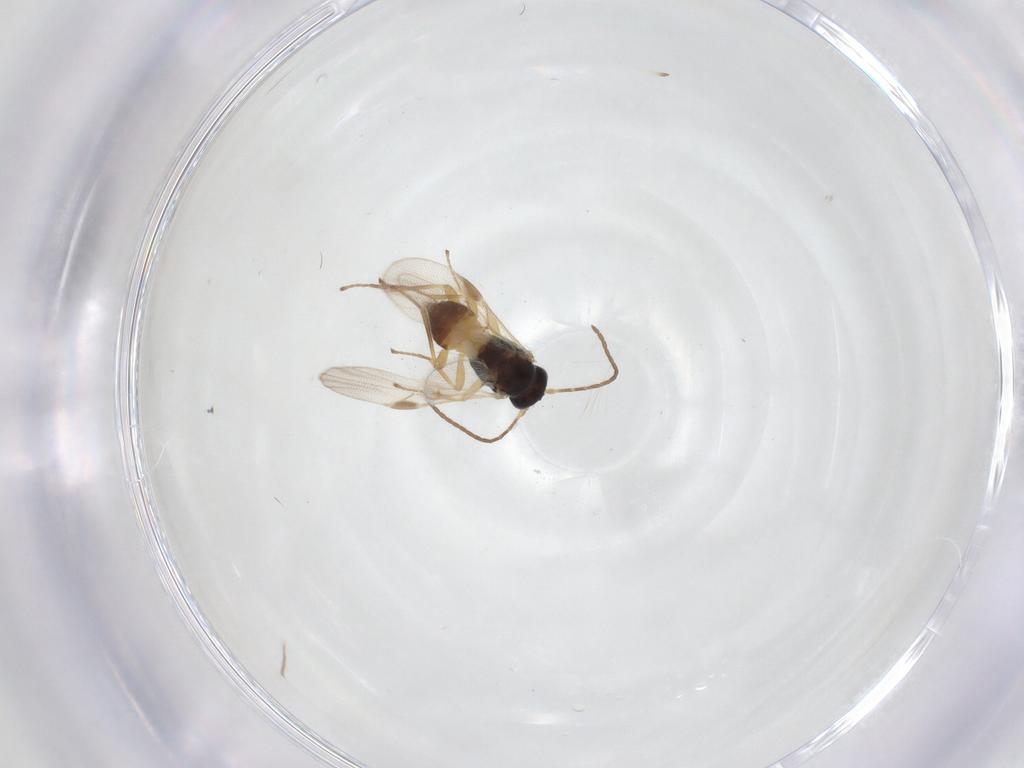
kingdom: Animalia
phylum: Arthropoda
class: Insecta
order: Hymenoptera
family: Braconidae
